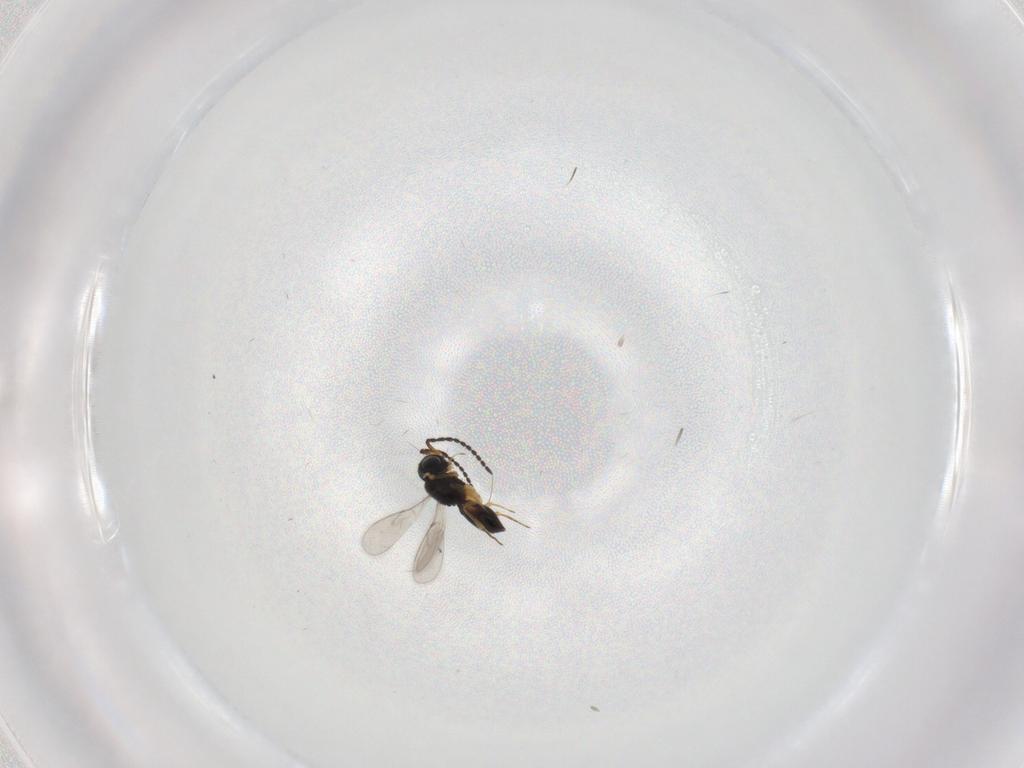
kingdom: Animalia
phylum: Arthropoda
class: Insecta
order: Hymenoptera
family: Scelionidae
